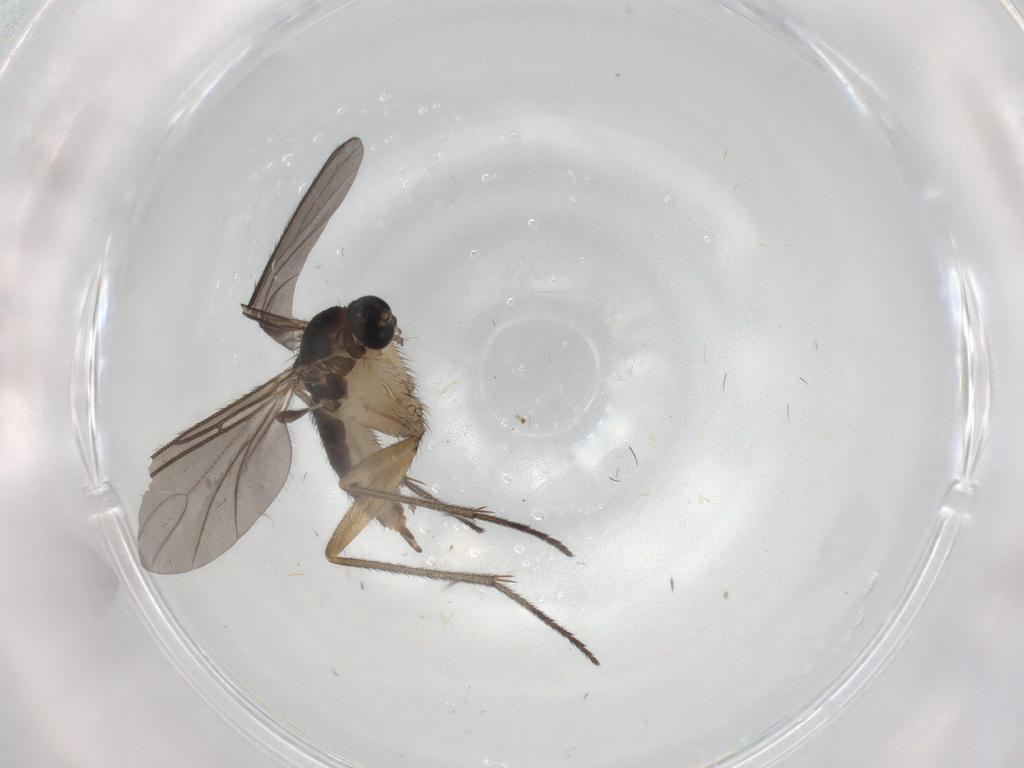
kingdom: Animalia
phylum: Arthropoda
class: Insecta
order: Diptera
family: Sciaridae
